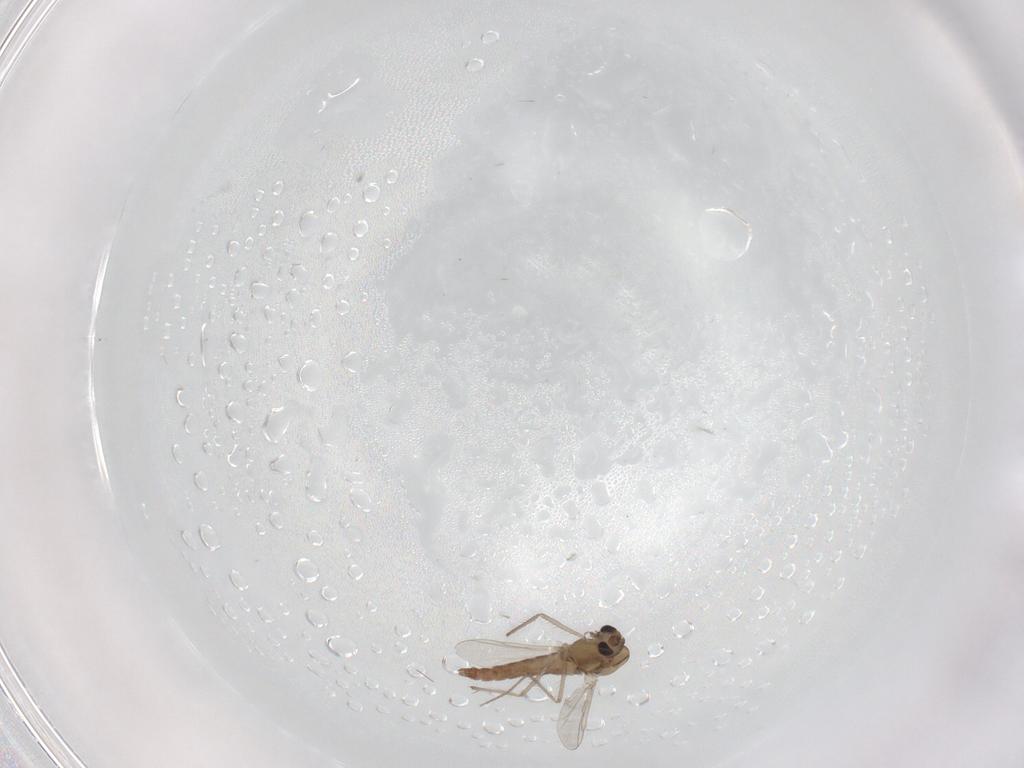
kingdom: Animalia
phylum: Arthropoda
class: Insecta
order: Diptera
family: Chironomidae
